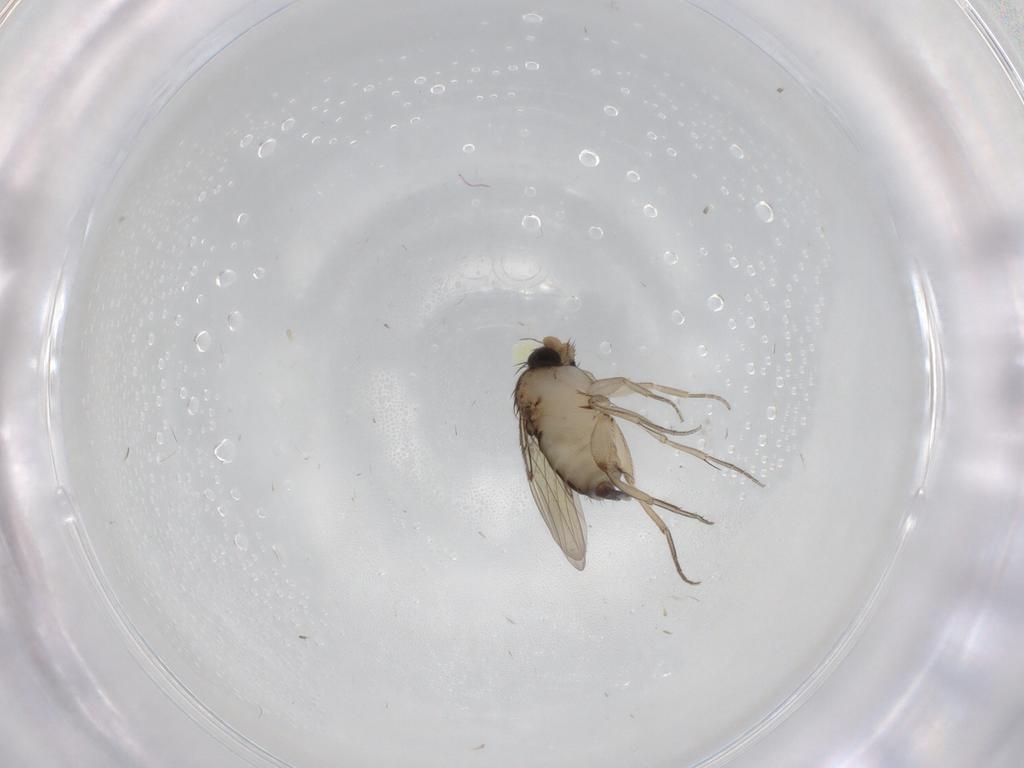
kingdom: Animalia
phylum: Arthropoda
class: Insecta
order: Diptera
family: Phoridae
